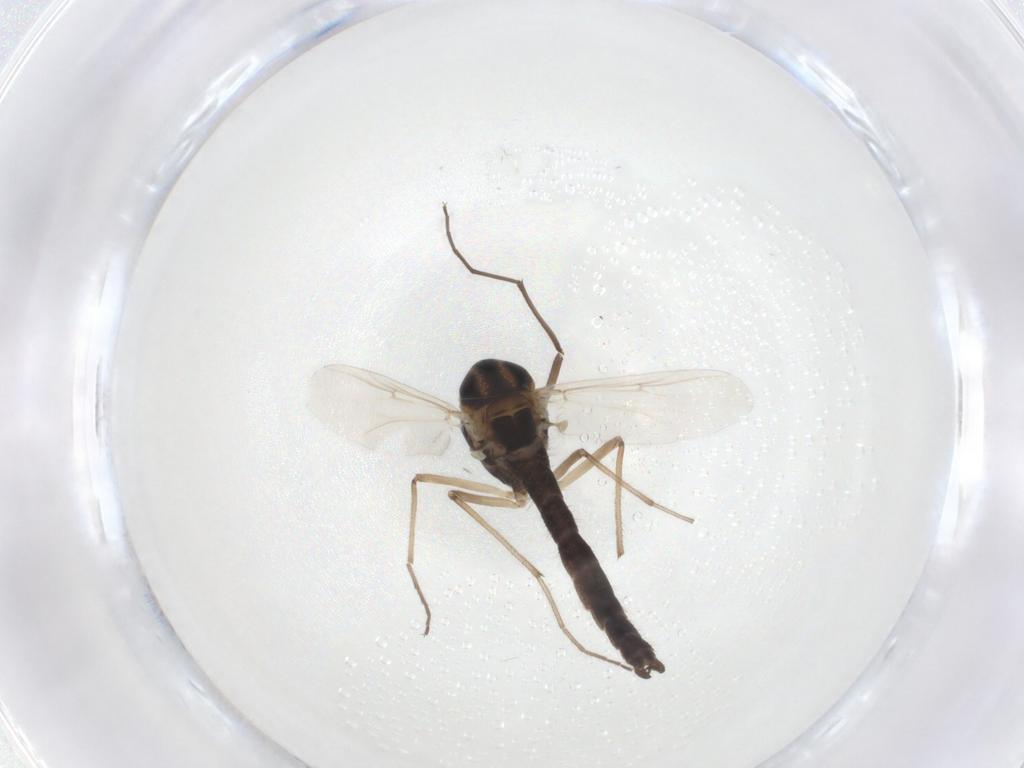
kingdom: Animalia
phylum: Arthropoda
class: Insecta
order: Diptera
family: Chironomidae
